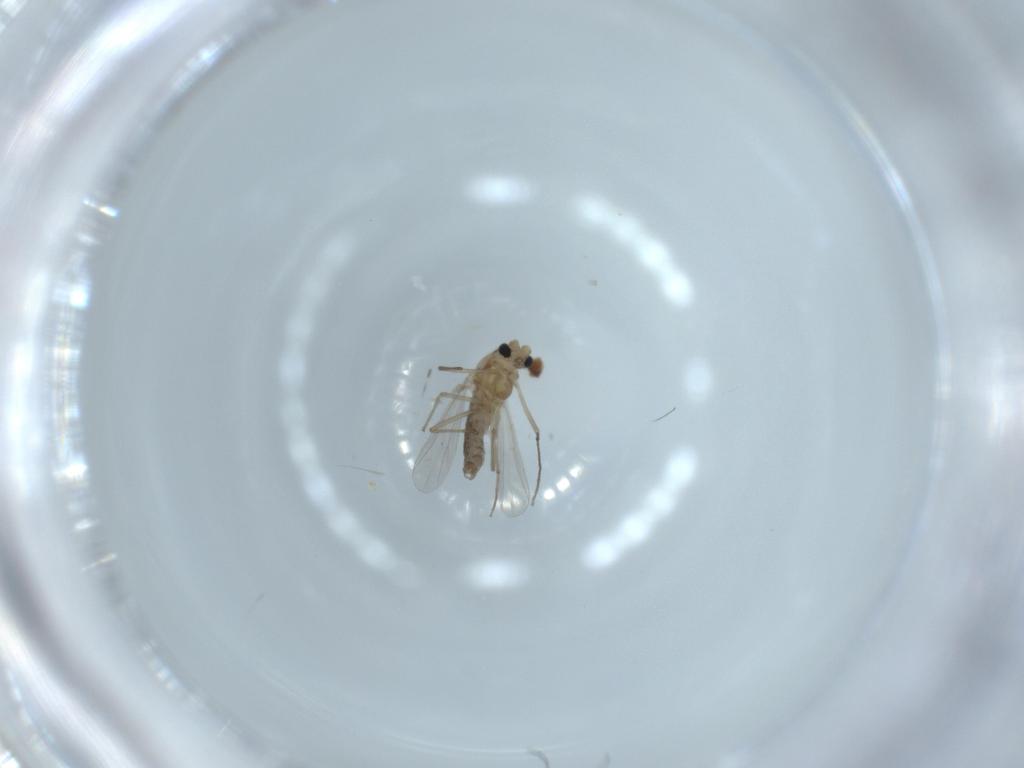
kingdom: Animalia
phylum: Arthropoda
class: Insecta
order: Diptera
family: Chironomidae
